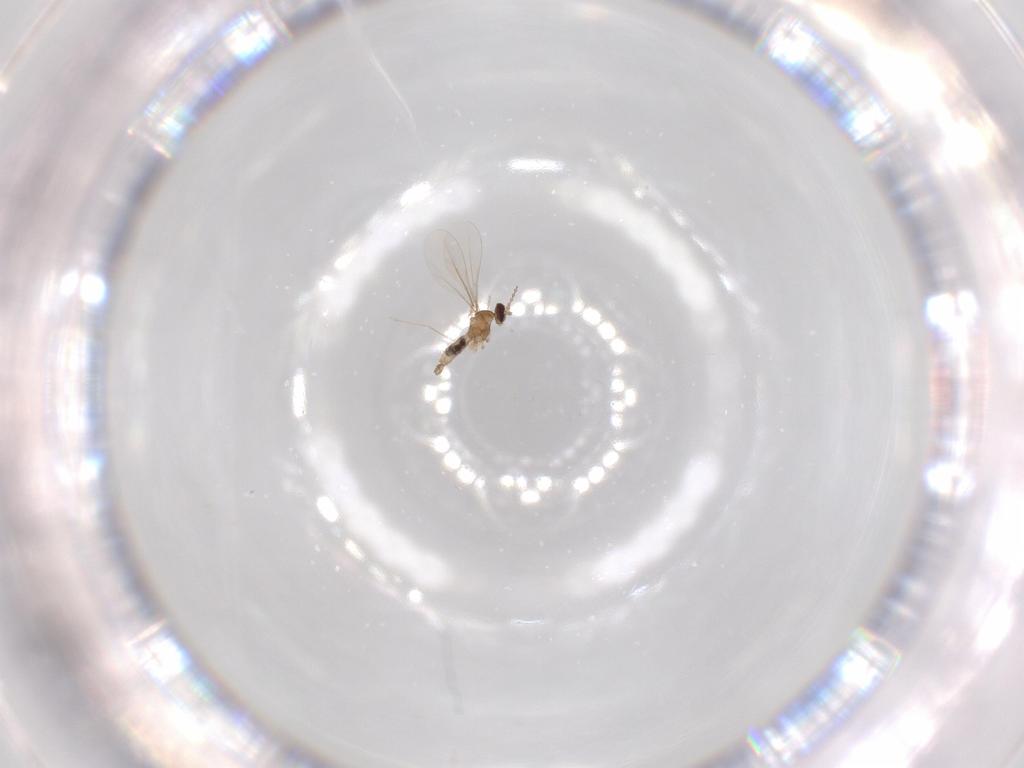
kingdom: Animalia
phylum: Arthropoda
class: Insecta
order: Diptera
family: Cecidomyiidae
